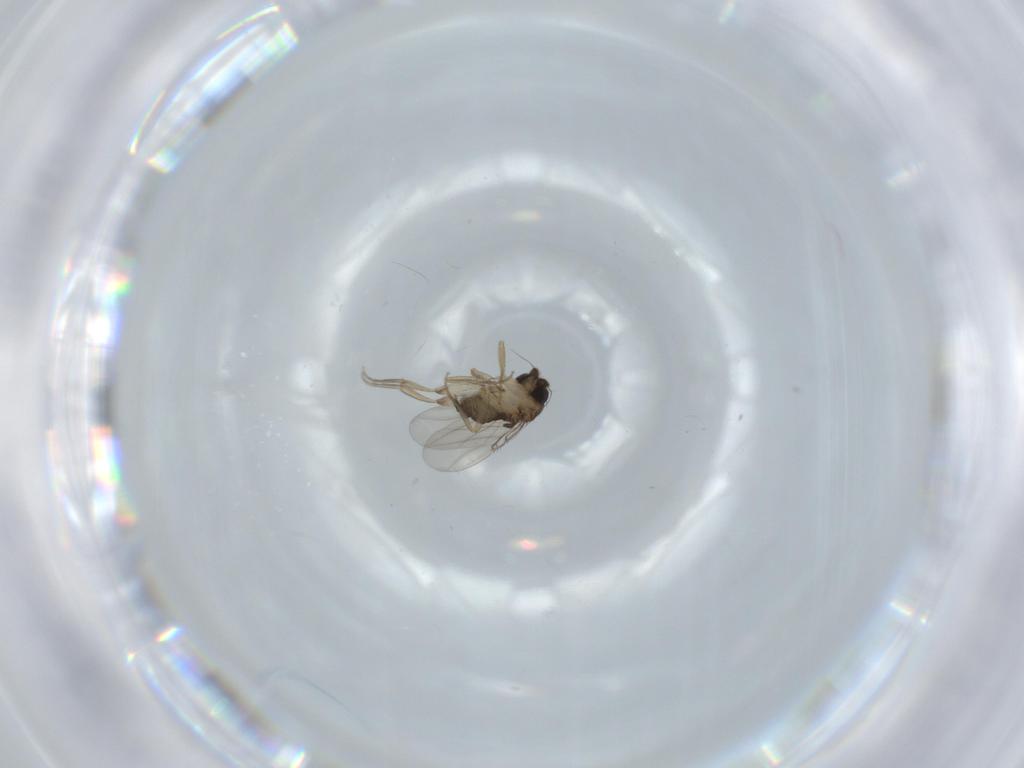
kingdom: Animalia
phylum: Arthropoda
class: Insecta
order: Diptera
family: Phoridae
